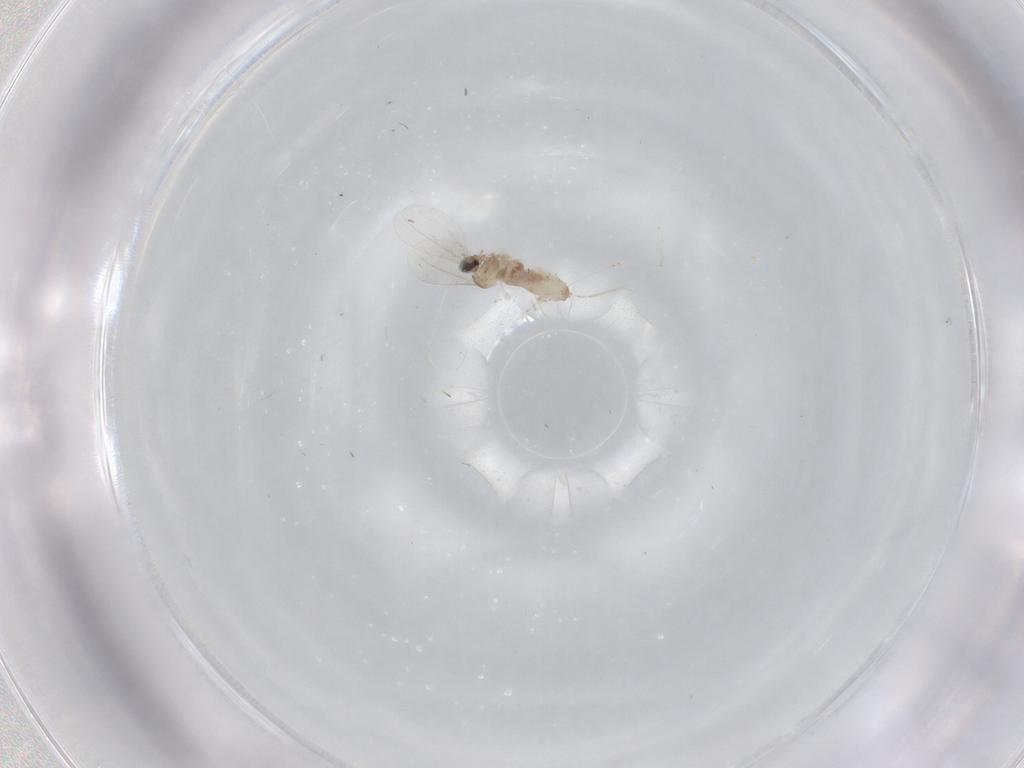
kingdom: Animalia
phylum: Arthropoda
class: Insecta
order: Diptera
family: Cecidomyiidae
